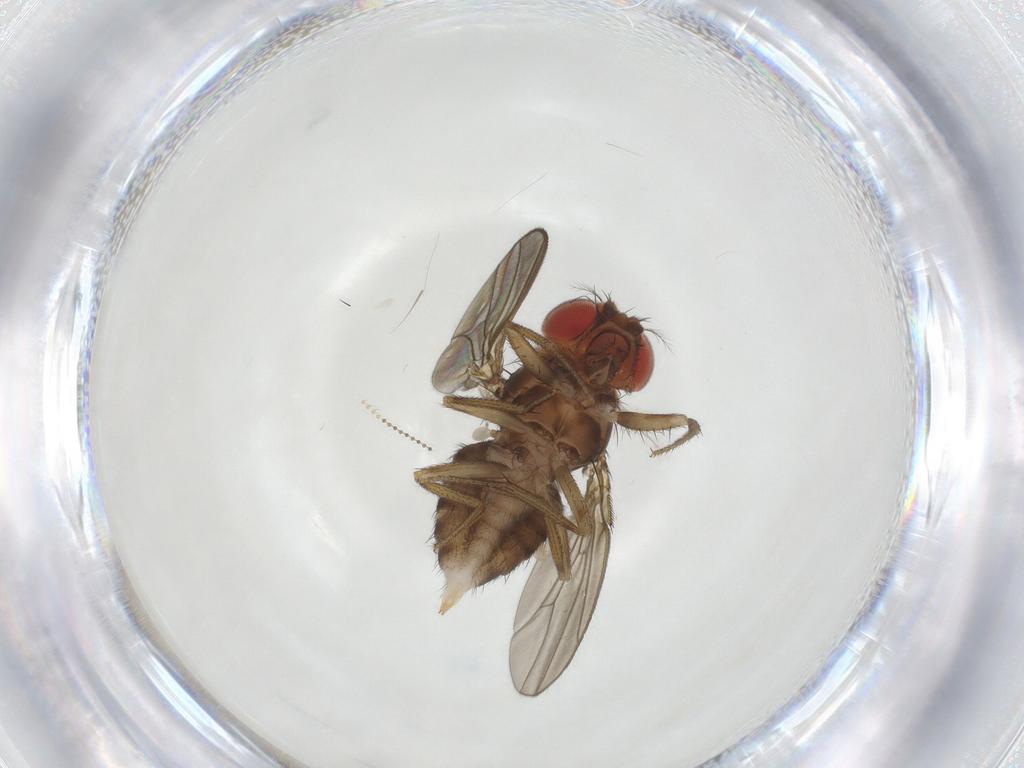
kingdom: Animalia
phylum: Arthropoda
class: Insecta
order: Diptera
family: Drosophilidae
